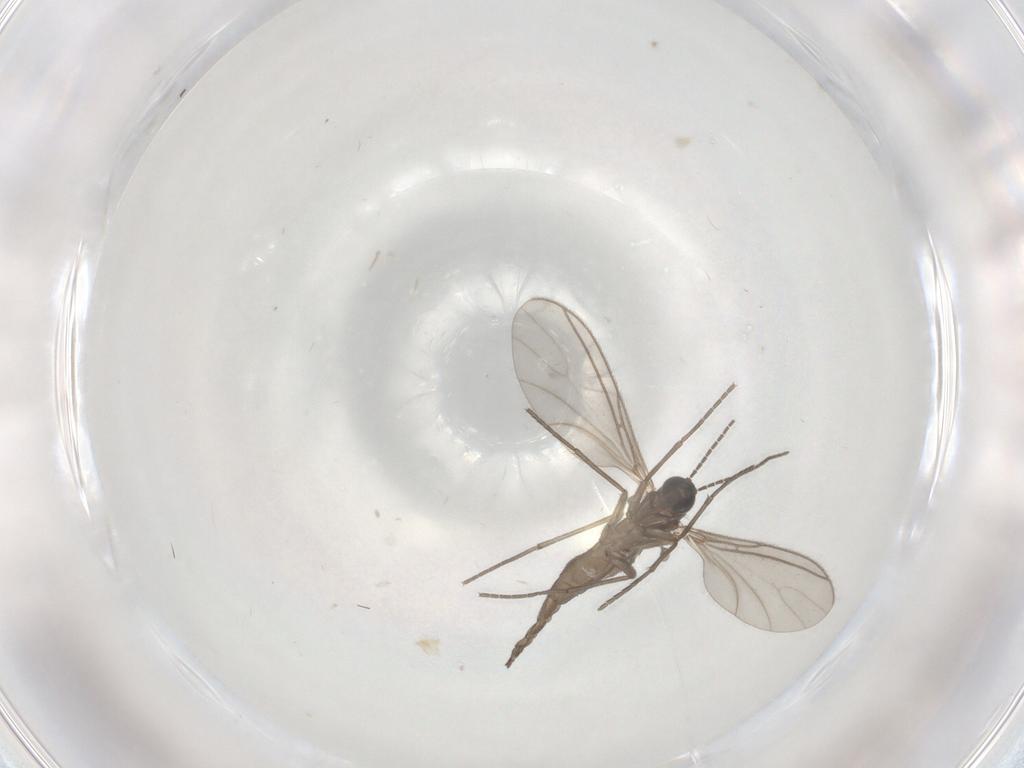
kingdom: Animalia
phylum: Arthropoda
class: Insecta
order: Diptera
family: Sciaridae
